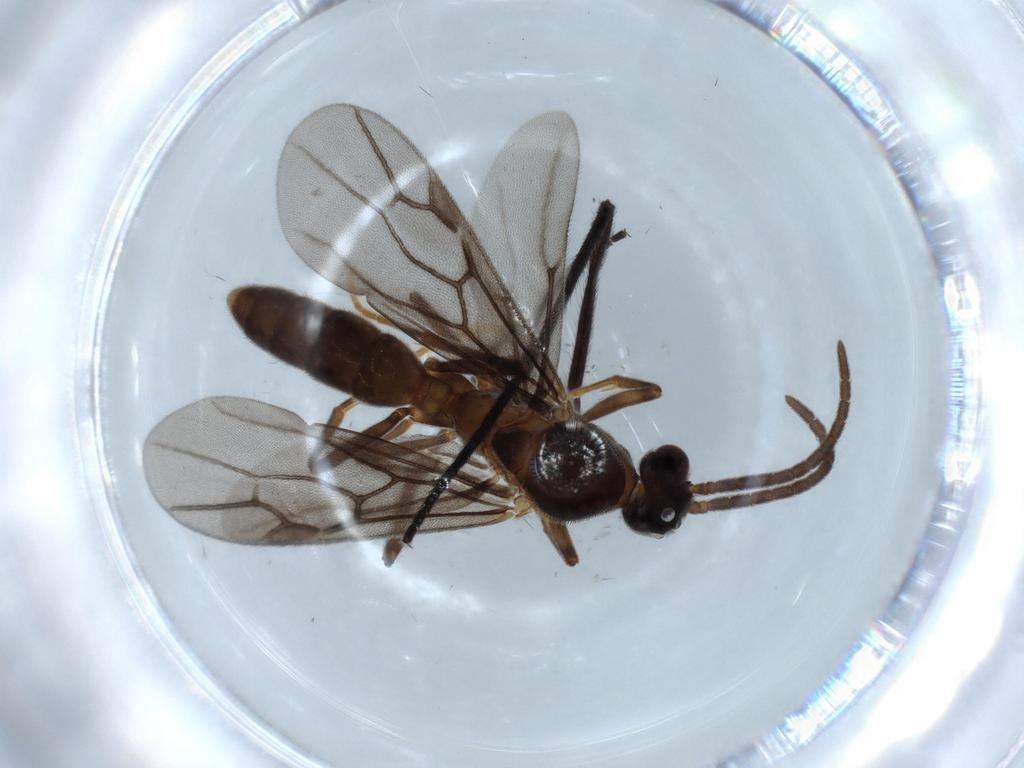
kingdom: Animalia
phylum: Arthropoda
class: Insecta
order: Hymenoptera
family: Formicidae
